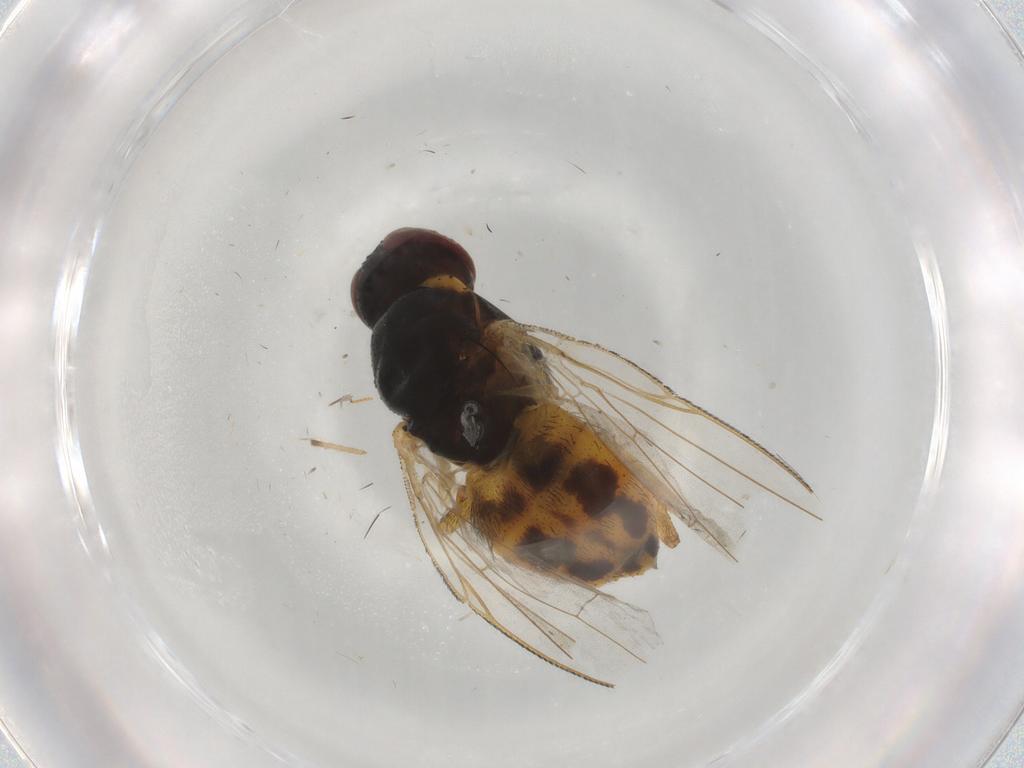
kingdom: Animalia
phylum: Arthropoda
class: Insecta
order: Diptera
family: Muscidae
